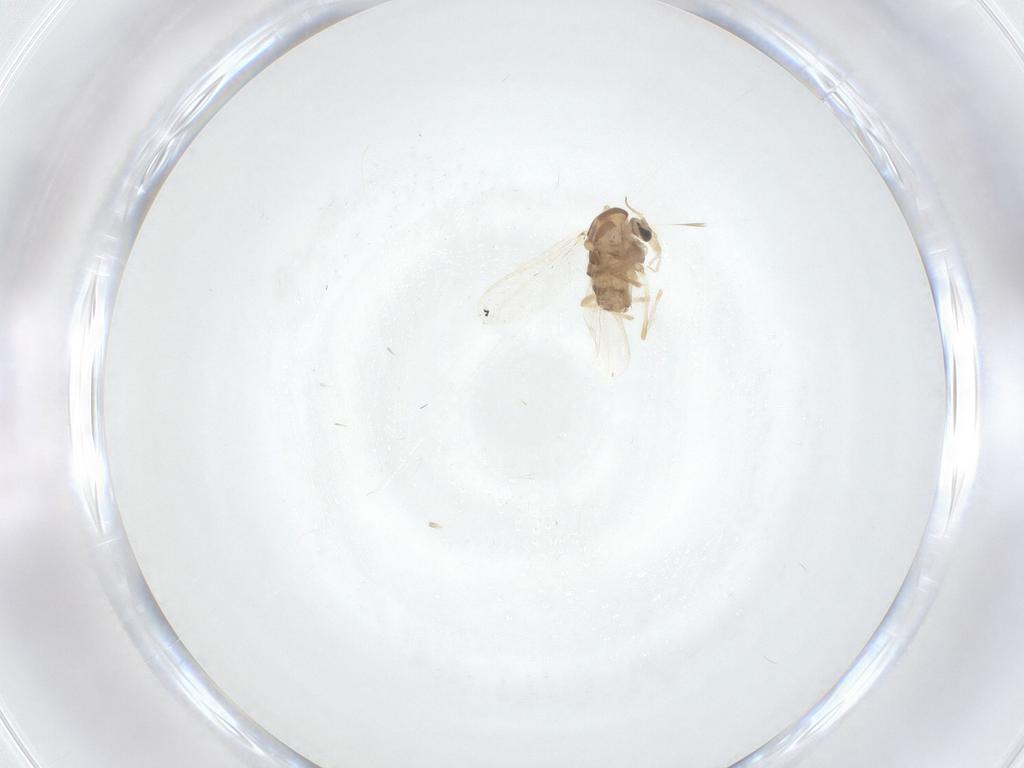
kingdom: Animalia
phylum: Arthropoda
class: Insecta
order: Diptera
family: Chironomidae
